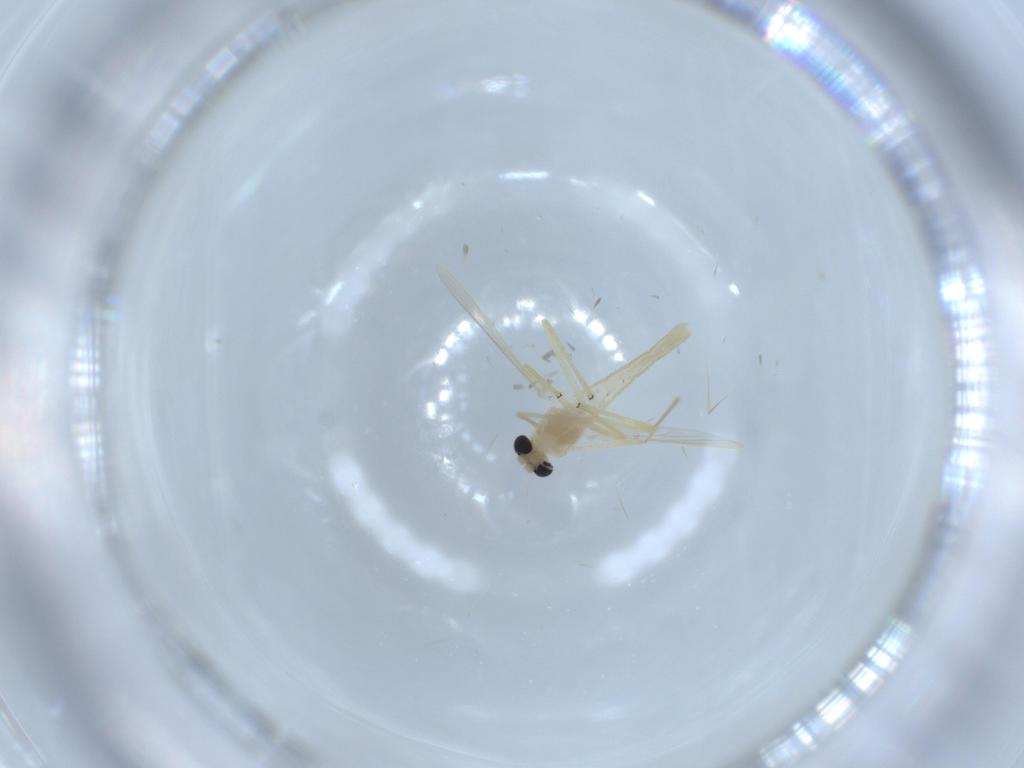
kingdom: Animalia
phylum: Arthropoda
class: Insecta
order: Diptera
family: Chironomidae
